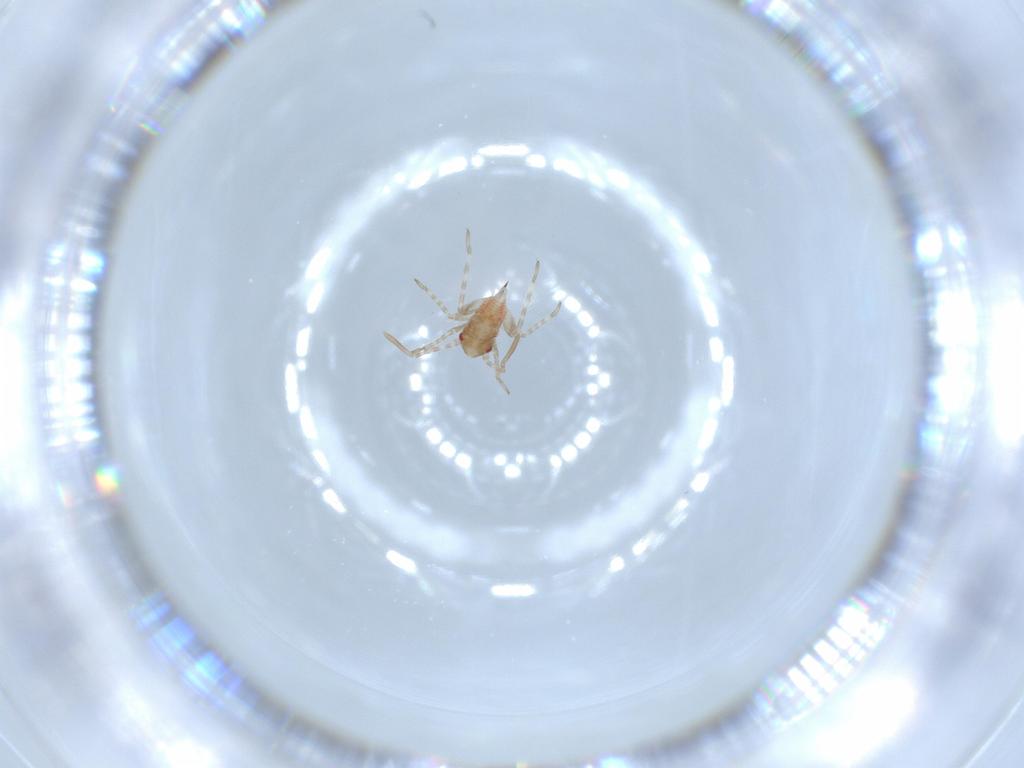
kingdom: Animalia
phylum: Arthropoda
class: Insecta
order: Hemiptera
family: Miridae
